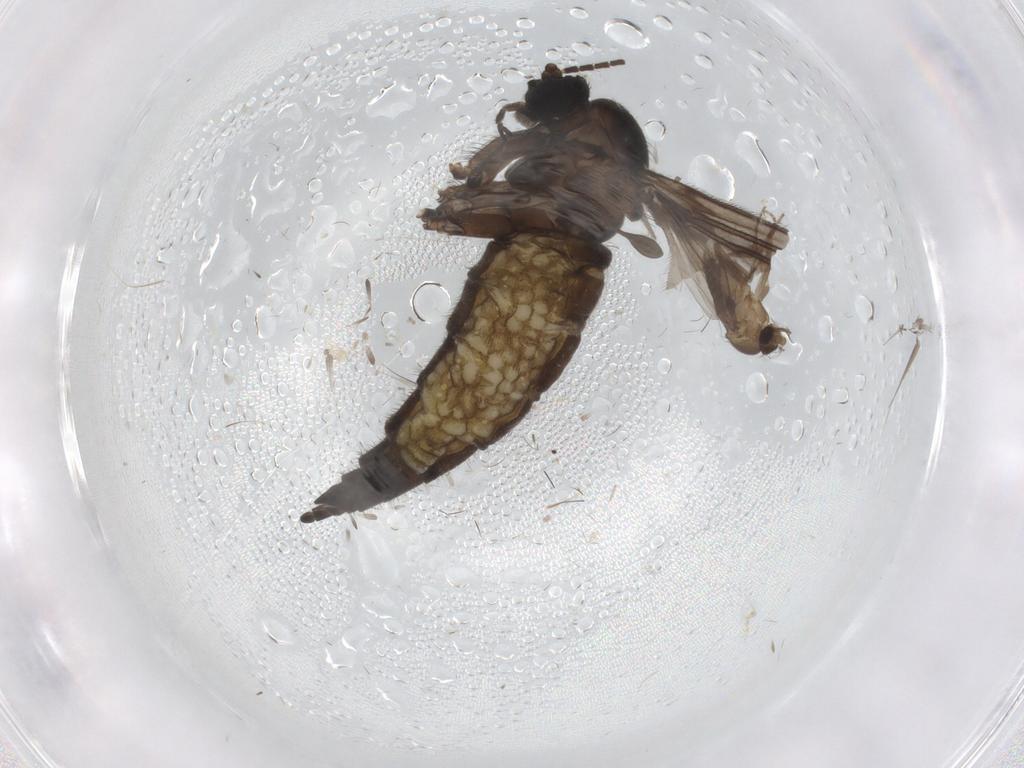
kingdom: Animalia
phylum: Arthropoda
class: Insecta
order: Diptera
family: Sciaridae
